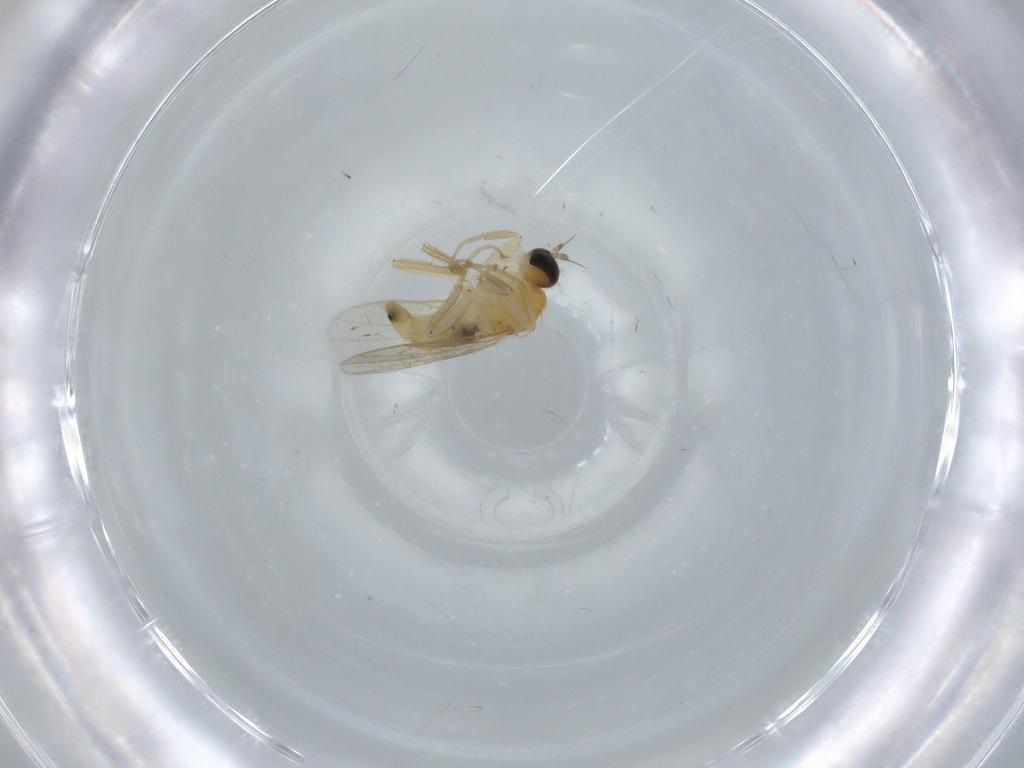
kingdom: Animalia
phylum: Arthropoda
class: Insecta
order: Diptera
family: Hybotidae
